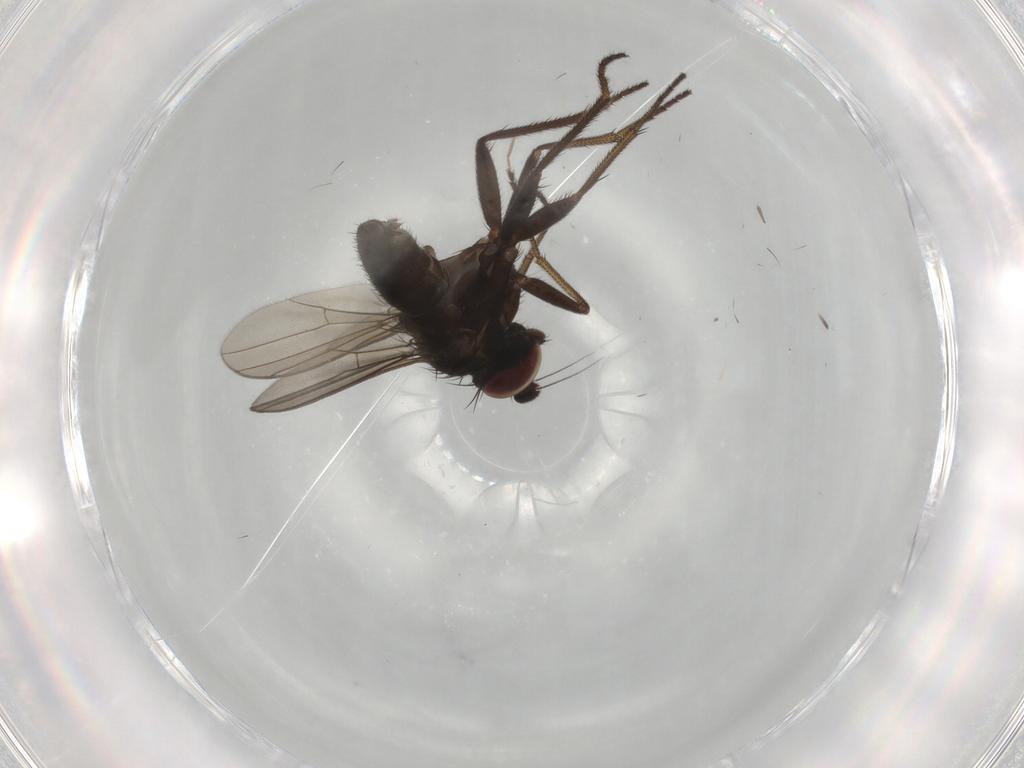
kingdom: Animalia
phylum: Arthropoda
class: Insecta
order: Diptera
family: Dolichopodidae
